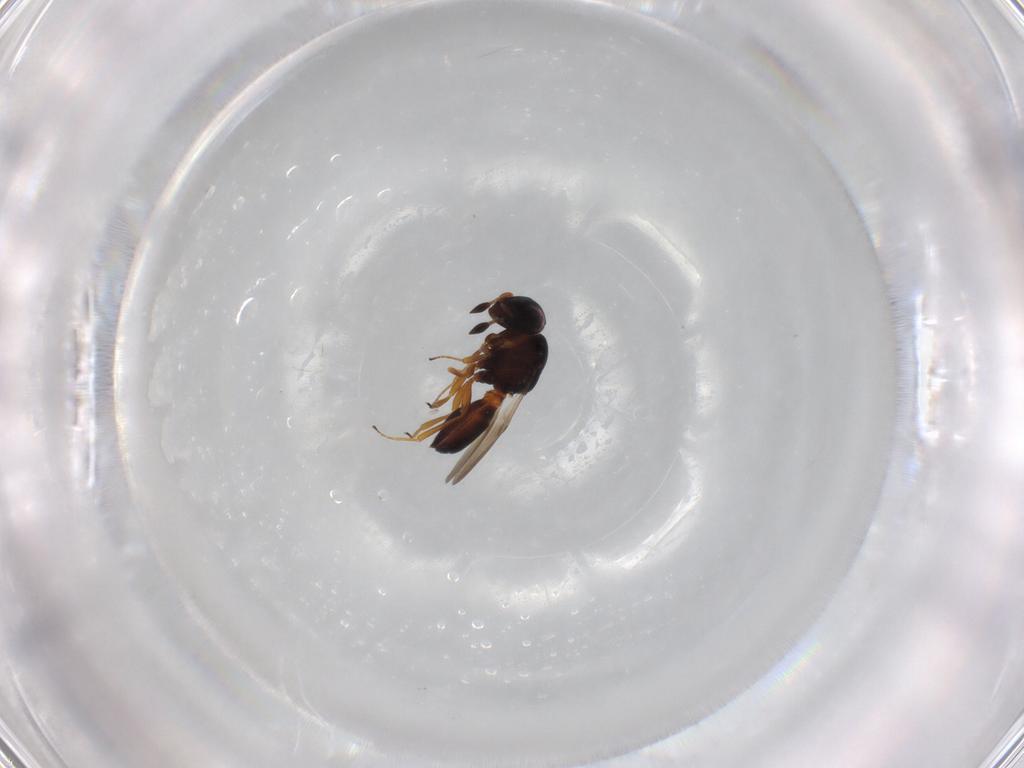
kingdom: Animalia
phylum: Arthropoda
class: Insecta
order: Hymenoptera
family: Scelionidae
